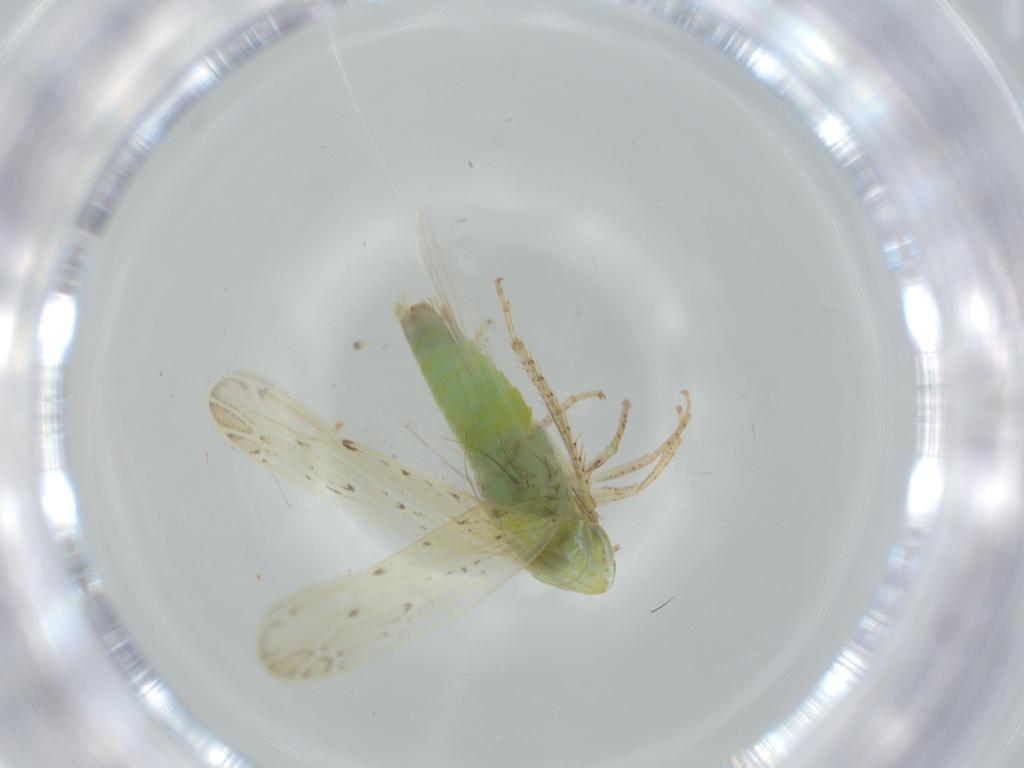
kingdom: Animalia
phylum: Arthropoda
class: Insecta
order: Hemiptera
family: Cicadellidae
